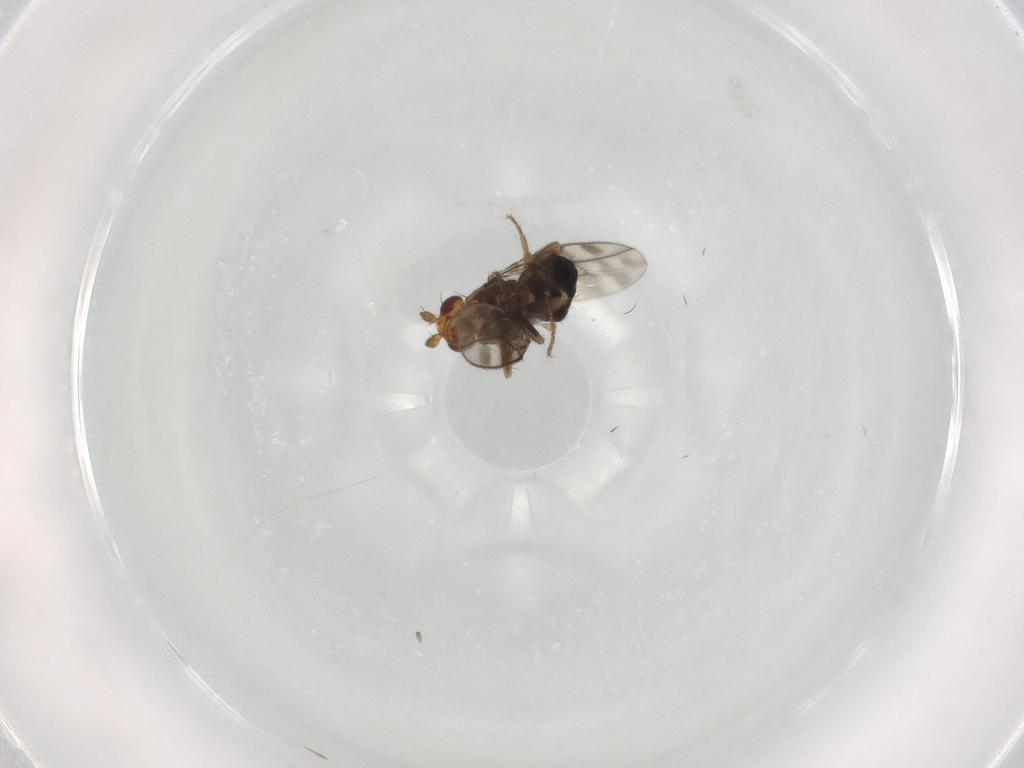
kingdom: Animalia
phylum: Arthropoda
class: Insecta
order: Diptera
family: Sphaeroceridae
